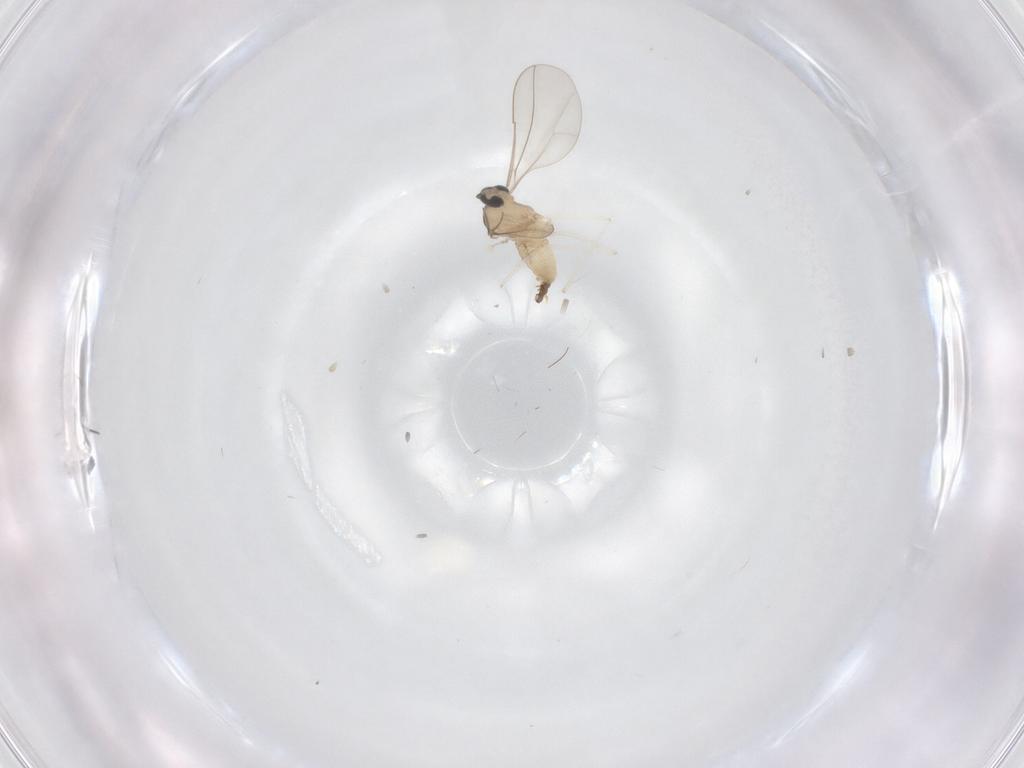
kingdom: Animalia
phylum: Arthropoda
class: Insecta
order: Diptera
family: Cecidomyiidae
